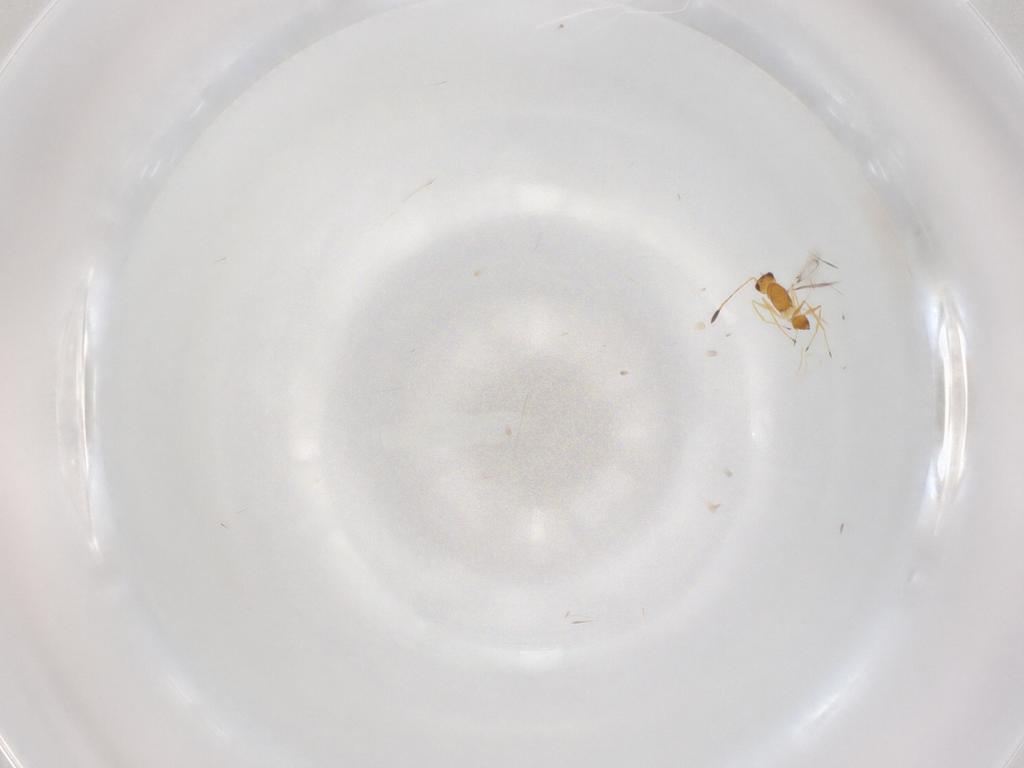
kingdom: Animalia
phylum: Arthropoda
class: Insecta
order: Hymenoptera
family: Mymaridae
